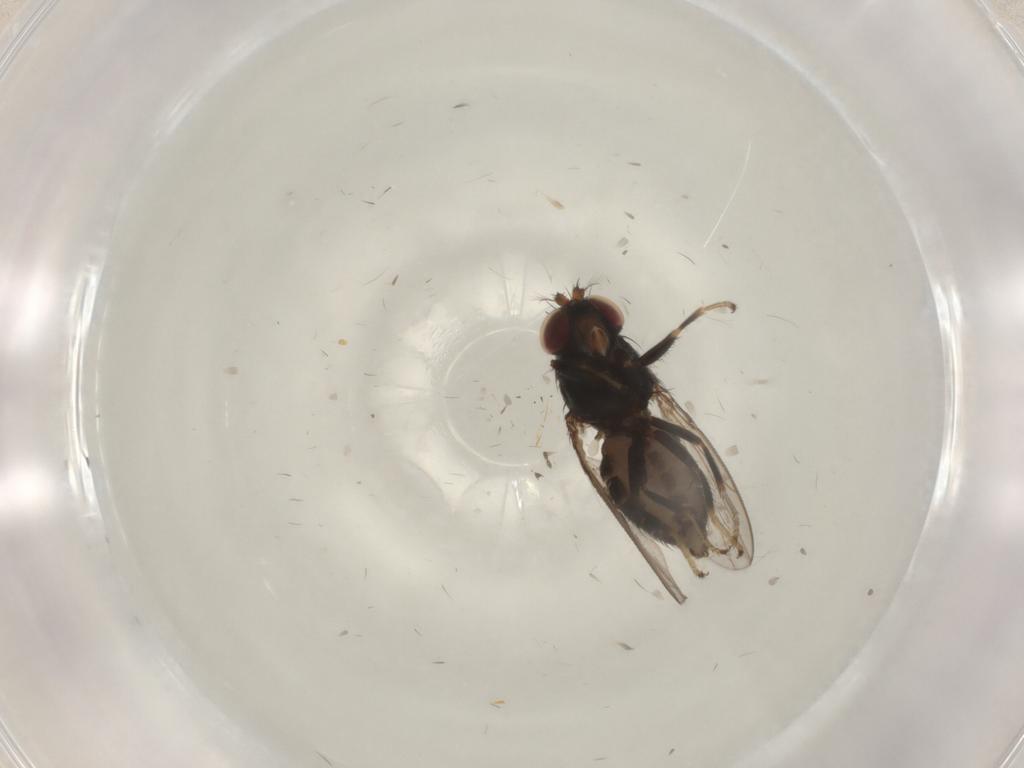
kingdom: Animalia
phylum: Arthropoda
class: Insecta
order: Diptera
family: Ephydridae
